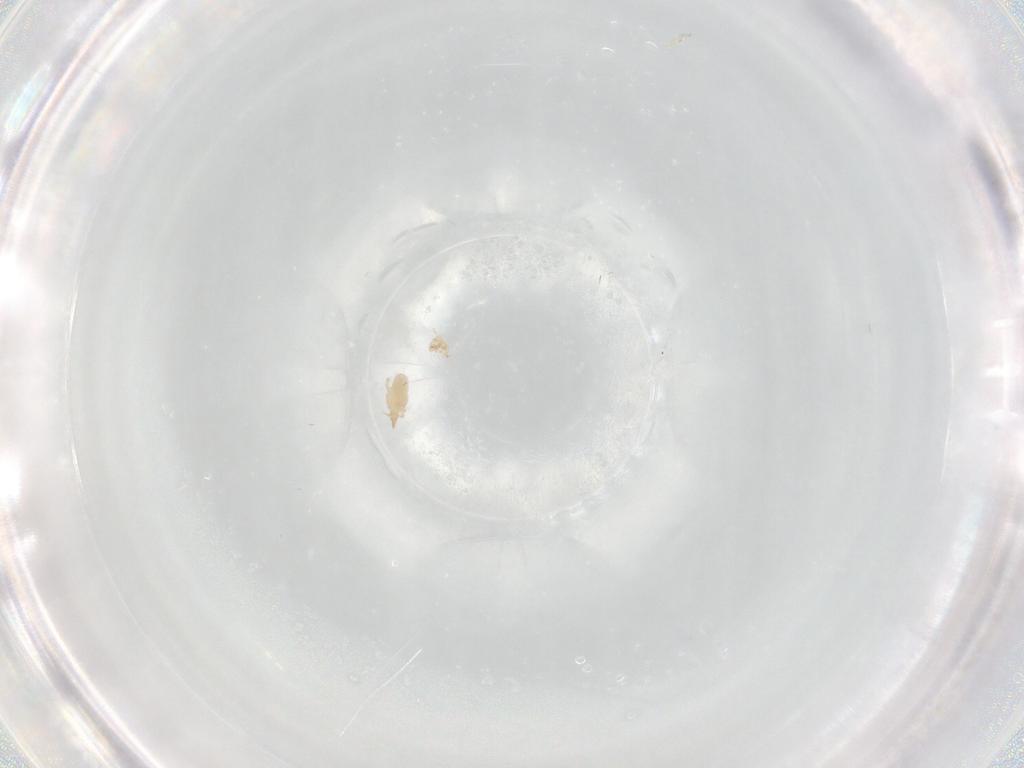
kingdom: Animalia
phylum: Arthropoda
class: Arachnida
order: Trombidiformes
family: Cunaxidae
